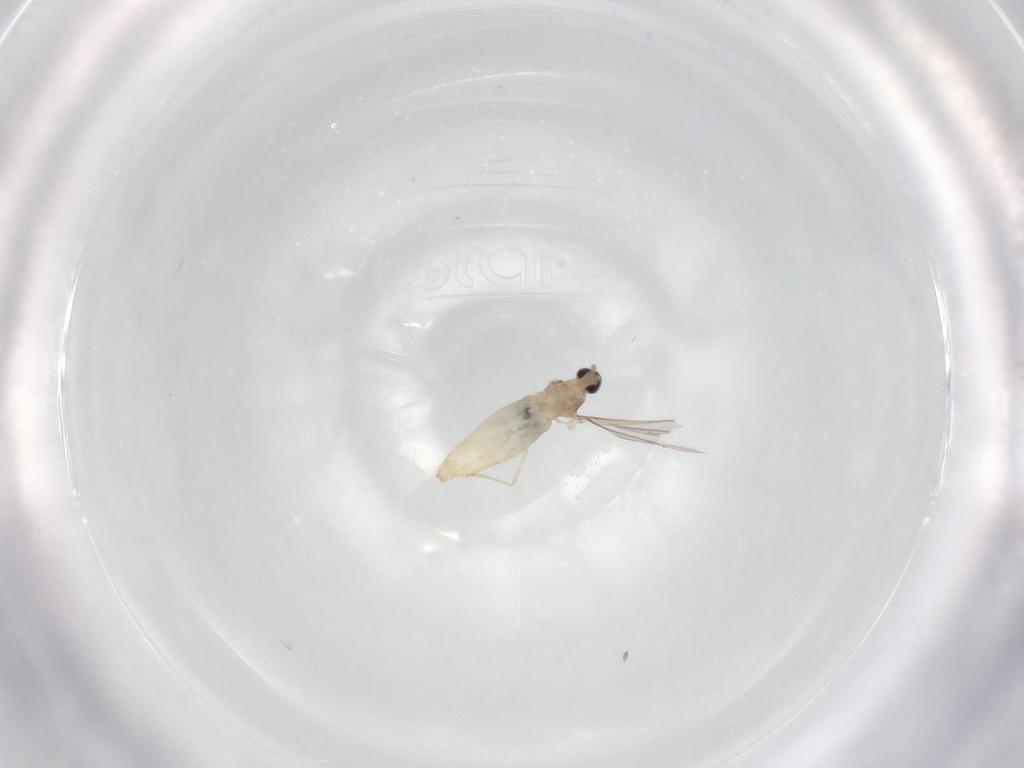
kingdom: Animalia
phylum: Arthropoda
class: Insecta
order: Diptera
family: Cecidomyiidae
